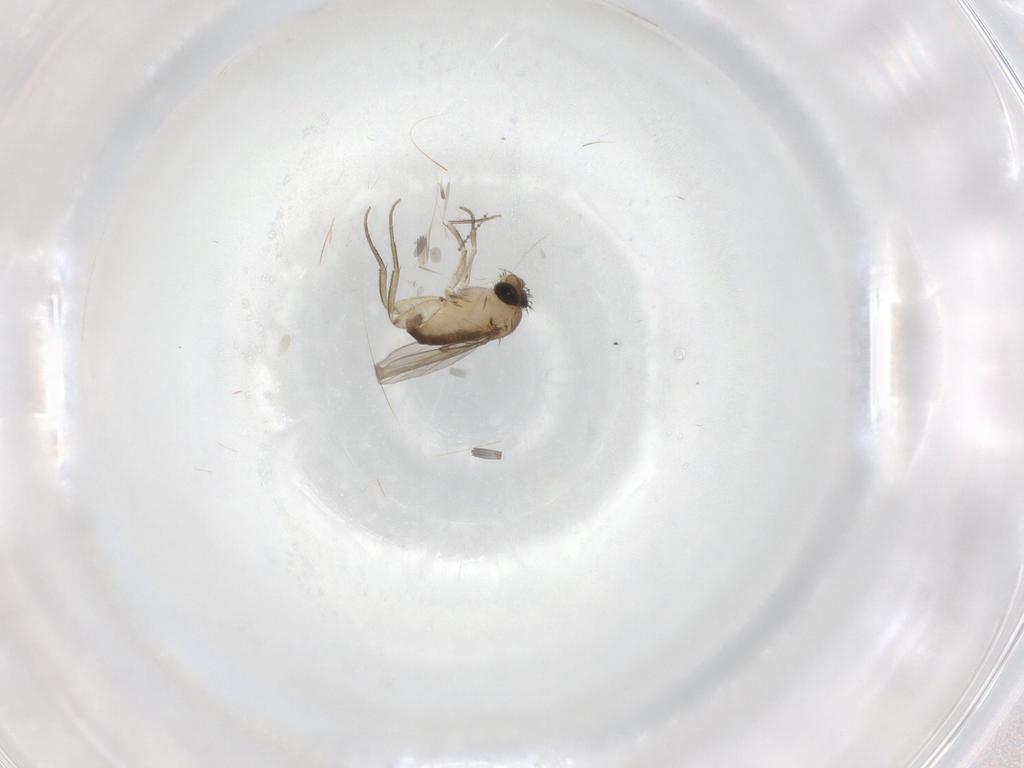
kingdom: Animalia
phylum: Arthropoda
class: Insecta
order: Diptera
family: Cecidomyiidae
